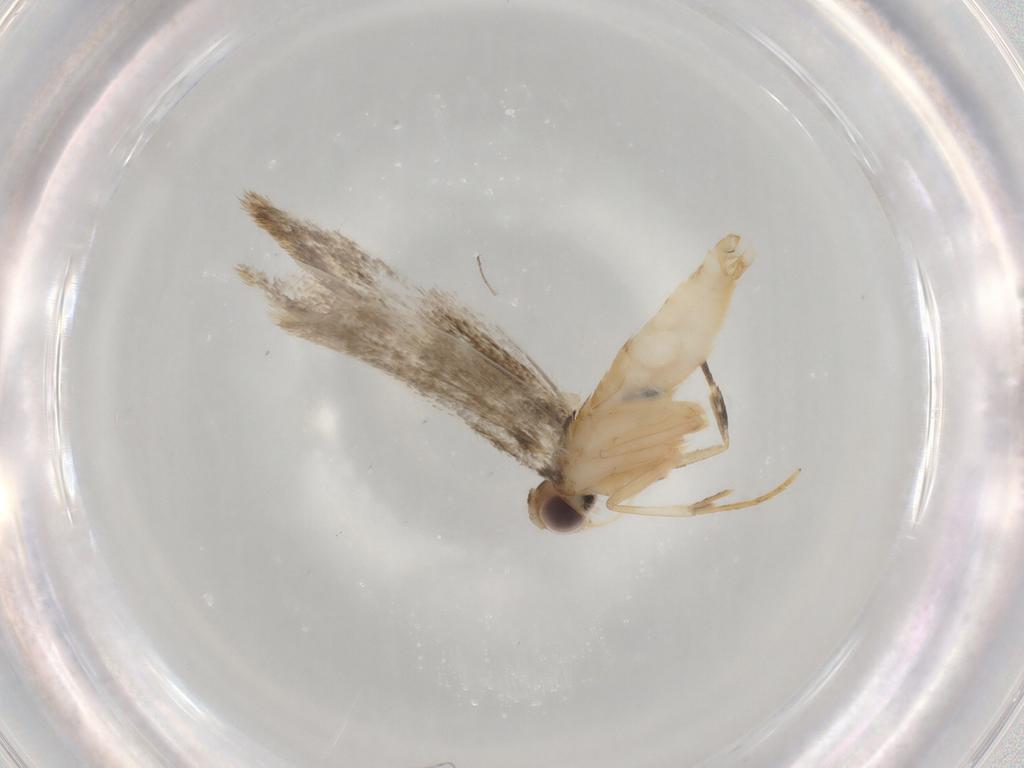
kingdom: Animalia
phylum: Arthropoda
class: Insecta
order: Lepidoptera
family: Autostichidae
